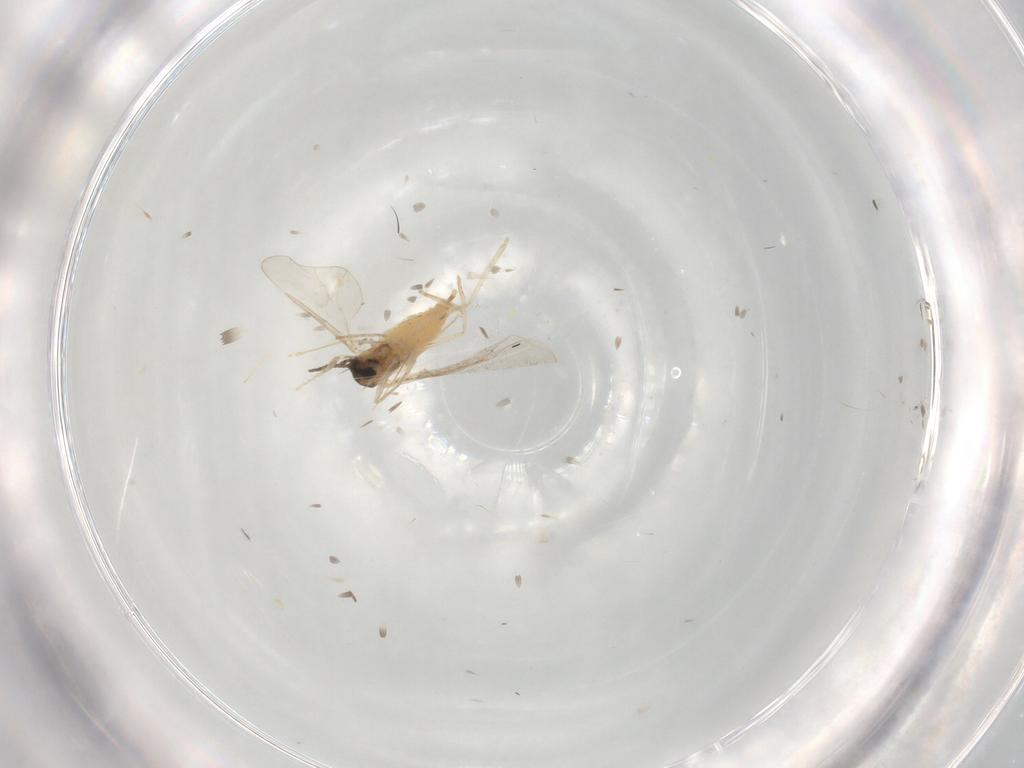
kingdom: Animalia
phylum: Arthropoda
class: Insecta
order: Diptera
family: Cecidomyiidae
